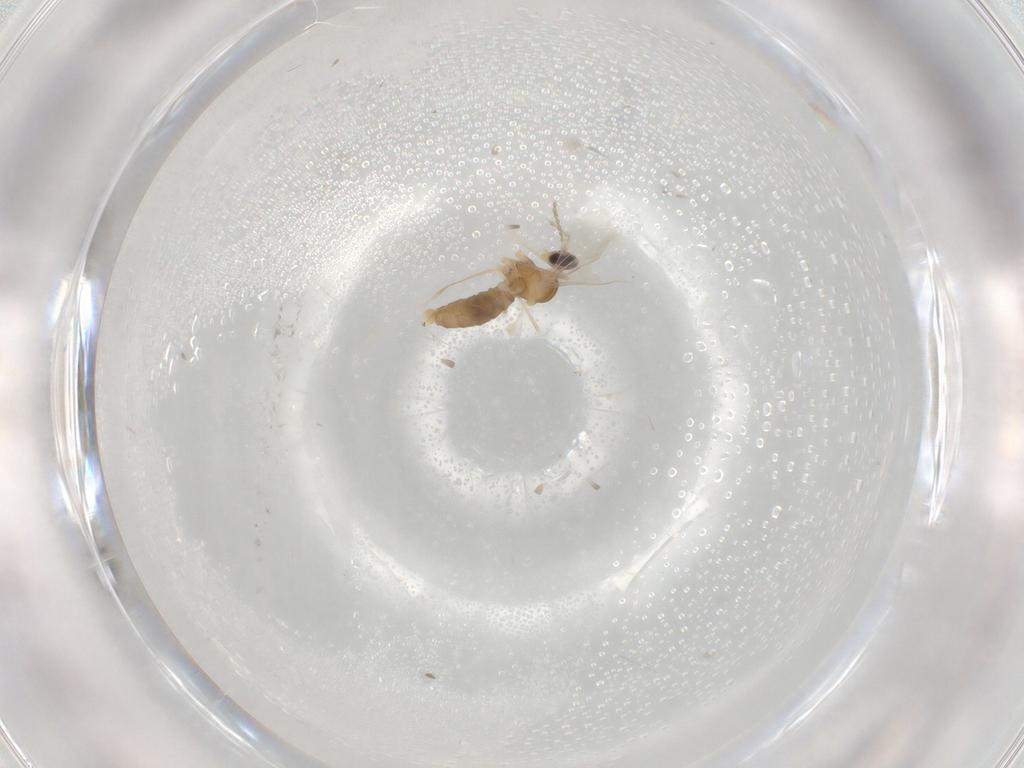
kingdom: Animalia
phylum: Arthropoda
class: Insecta
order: Diptera
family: Cecidomyiidae
